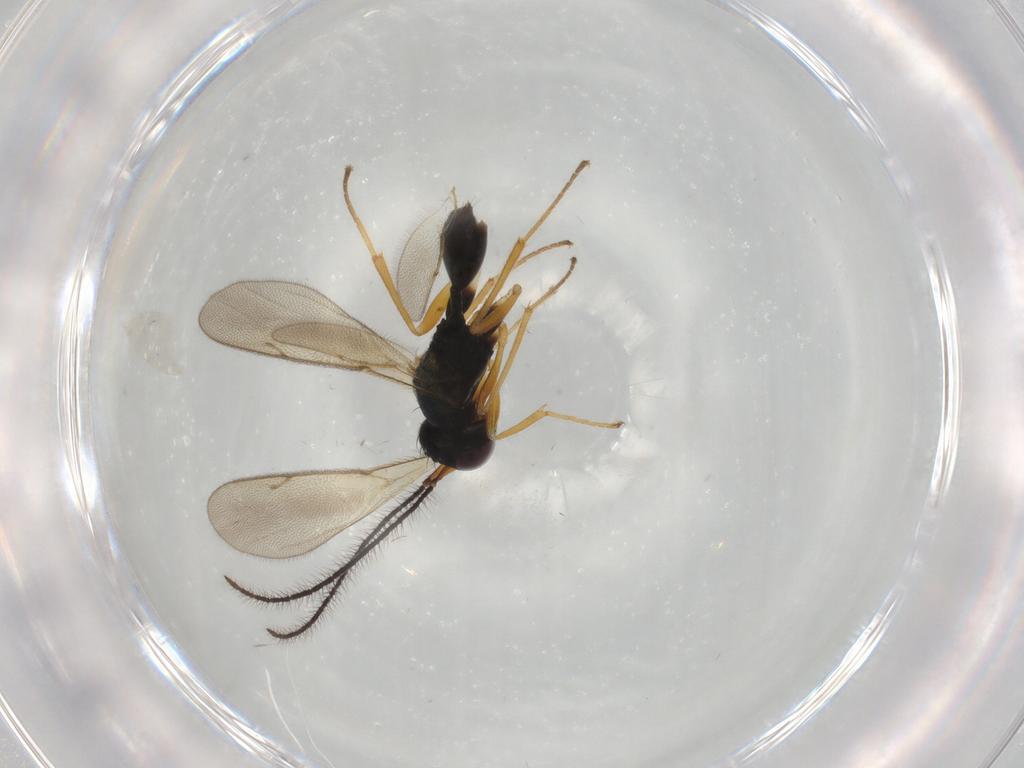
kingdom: Animalia
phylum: Arthropoda
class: Insecta
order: Hymenoptera
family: Diparidae
